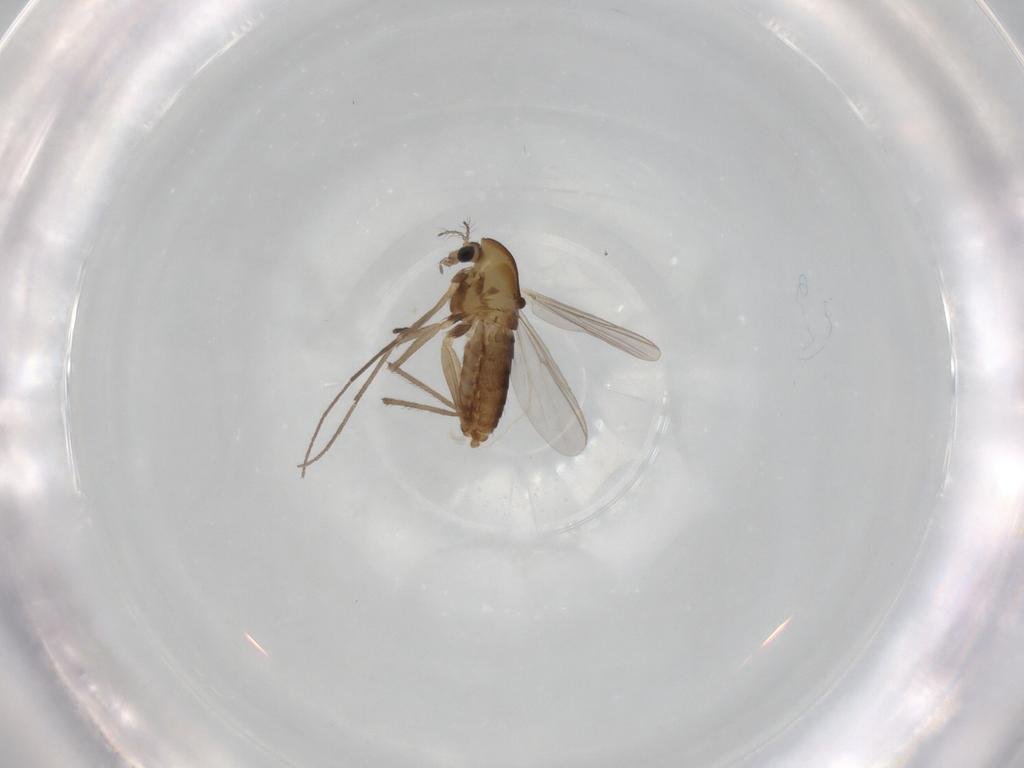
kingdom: Animalia
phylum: Arthropoda
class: Insecta
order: Diptera
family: Chironomidae
